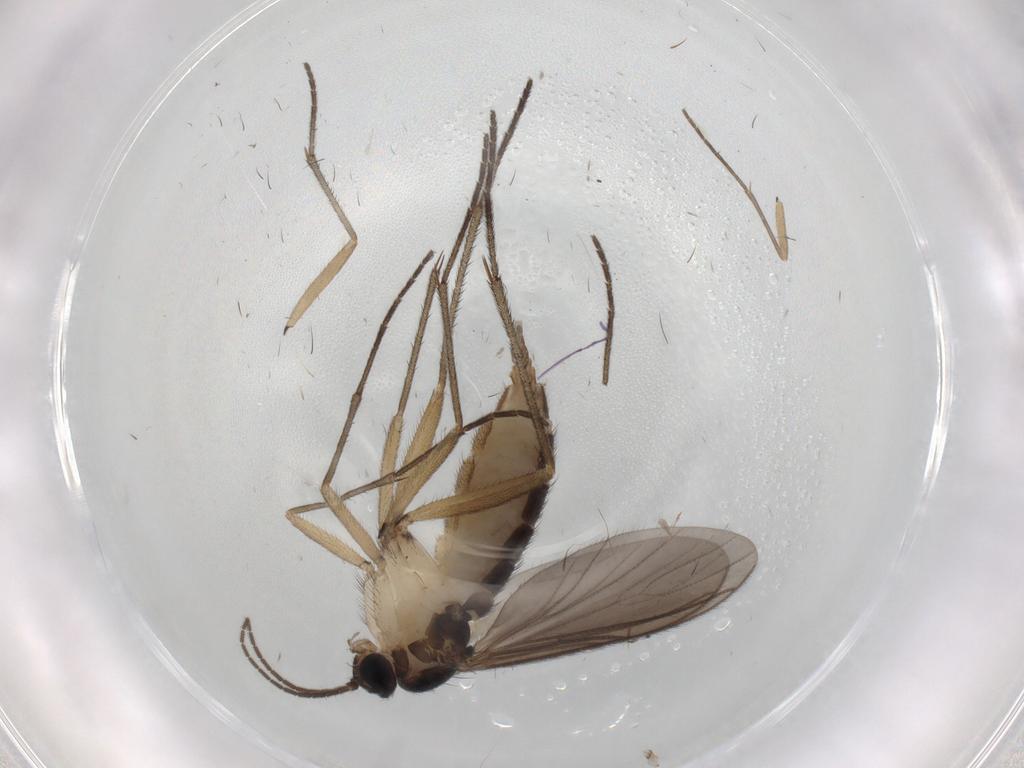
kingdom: Animalia
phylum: Arthropoda
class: Insecta
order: Diptera
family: Sciaridae
